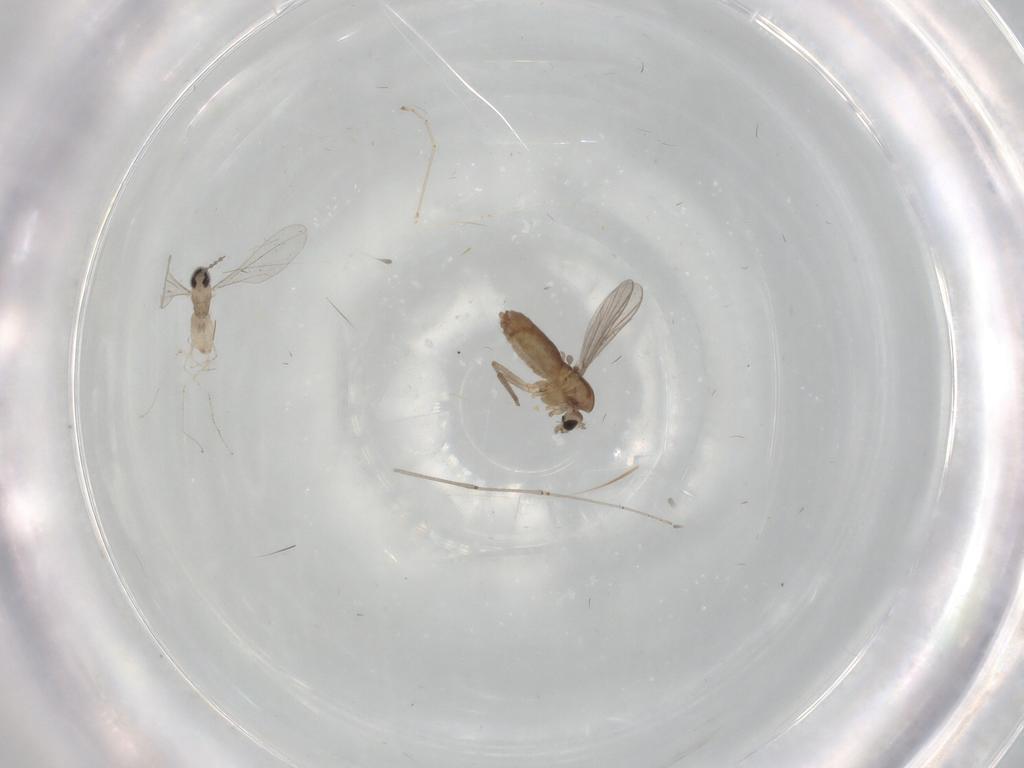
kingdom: Animalia
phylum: Arthropoda
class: Insecta
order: Diptera
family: Chironomidae
